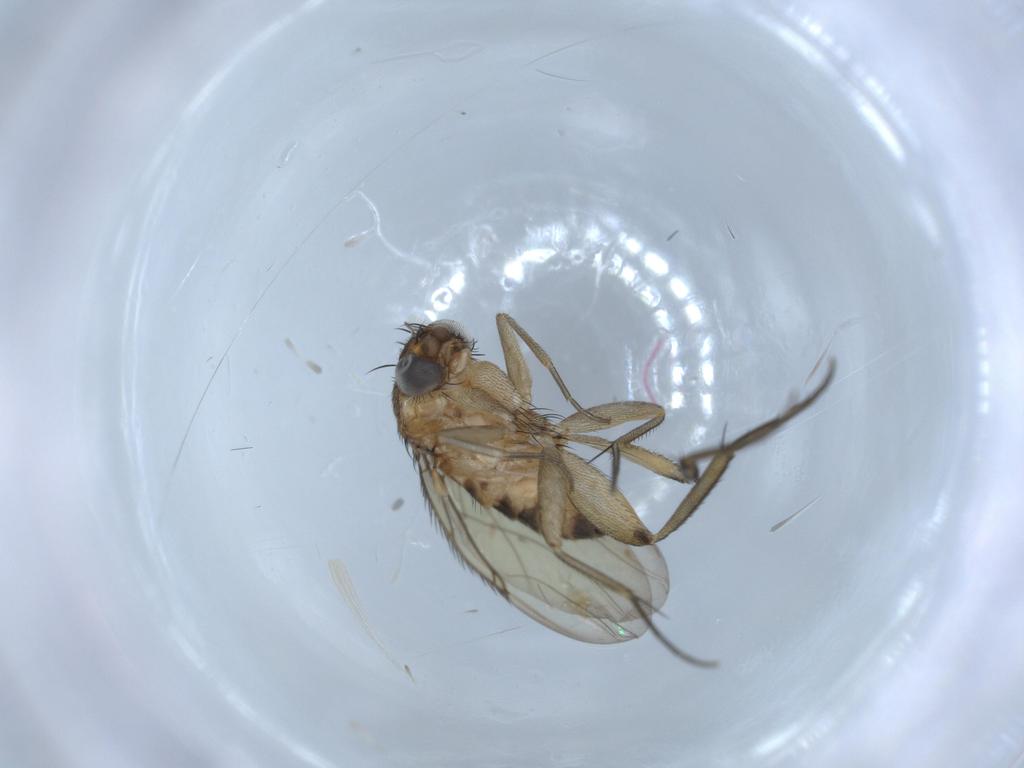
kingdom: Animalia
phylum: Arthropoda
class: Insecta
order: Diptera
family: Phoridae
